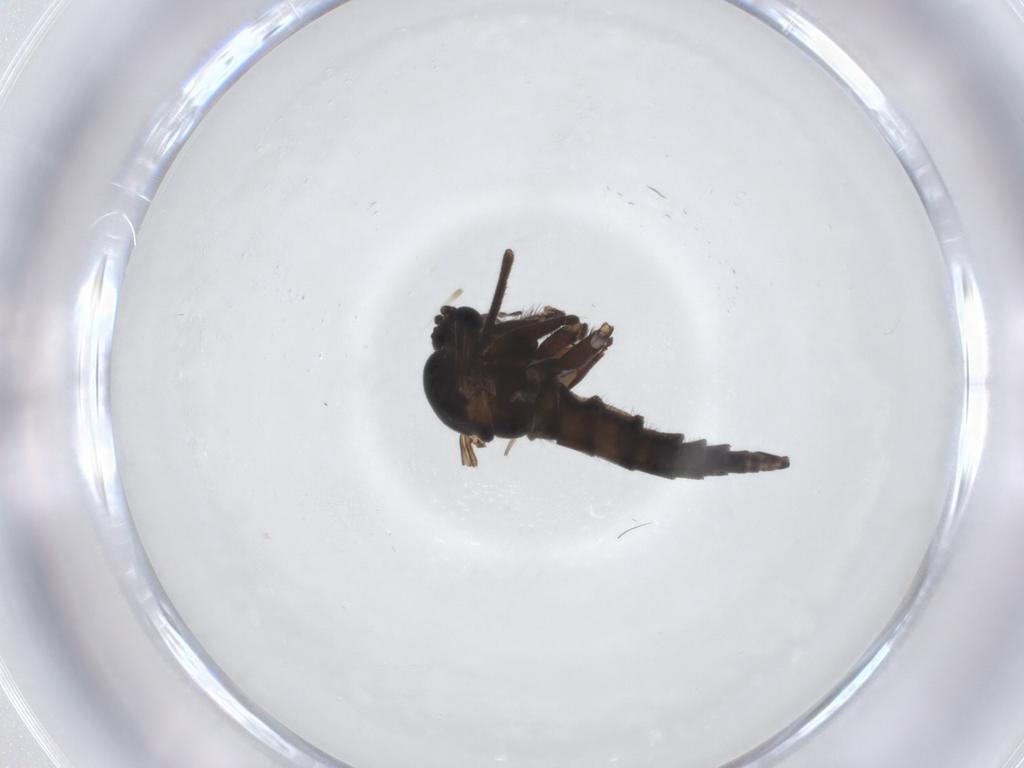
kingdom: Animalia
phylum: Arthropoda
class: Insecta
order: Diptera
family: Sciaridae
